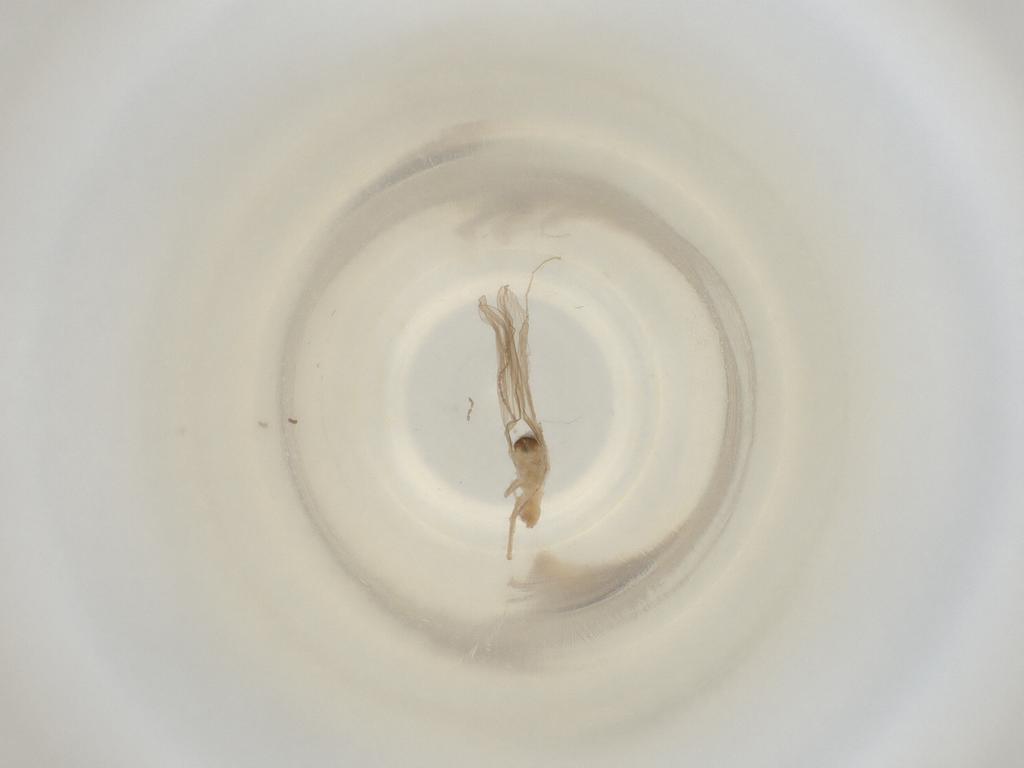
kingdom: Animalia
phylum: Arthropoda
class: Insecta
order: Diptera
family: Cecidomyiidae
